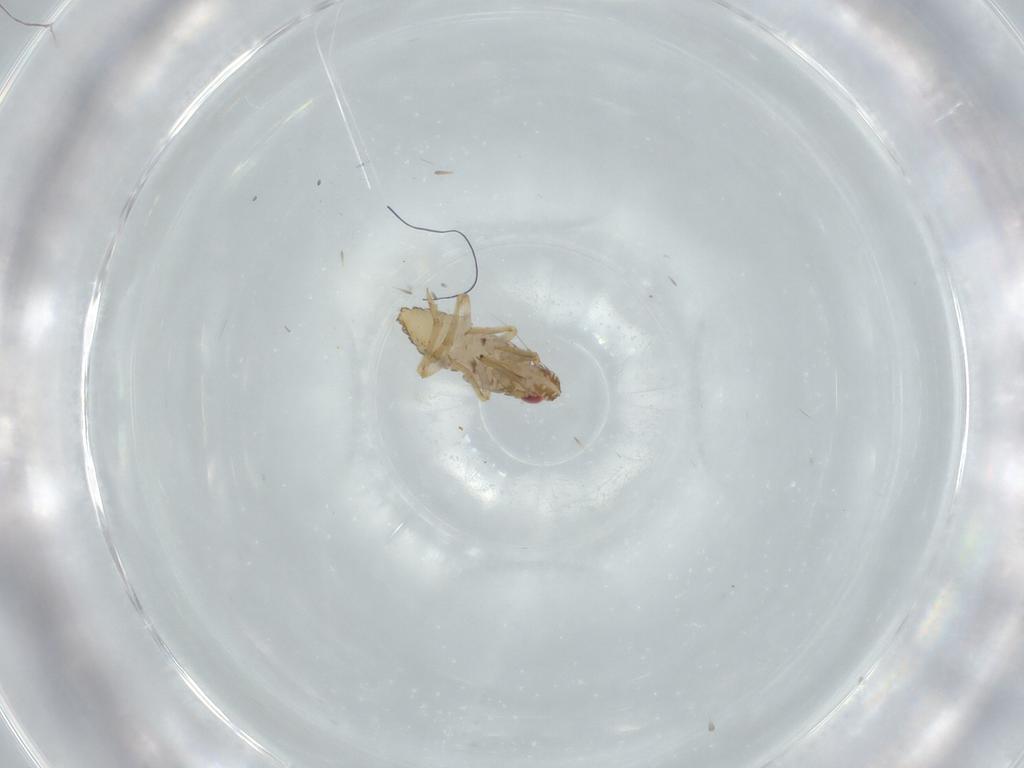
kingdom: Animalia
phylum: Arthropoda
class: Insecta
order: Hemiptera
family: Delphacidae
